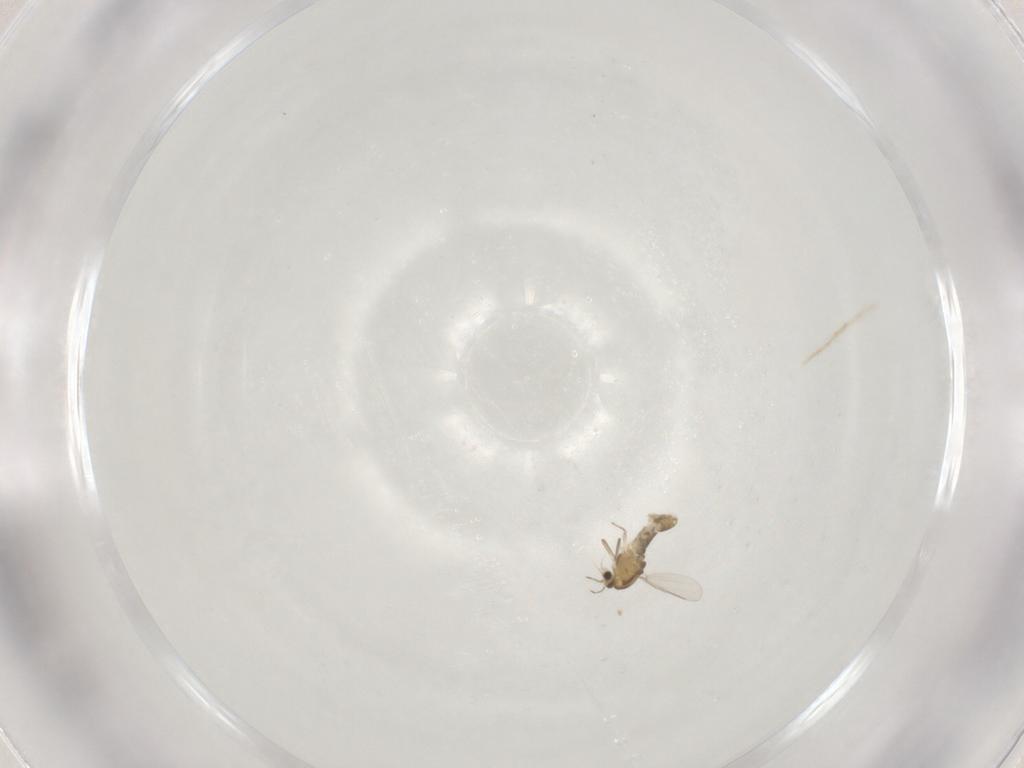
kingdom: Animalia
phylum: Arthropoda
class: Insecta
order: Diptera
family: Chironomidae
